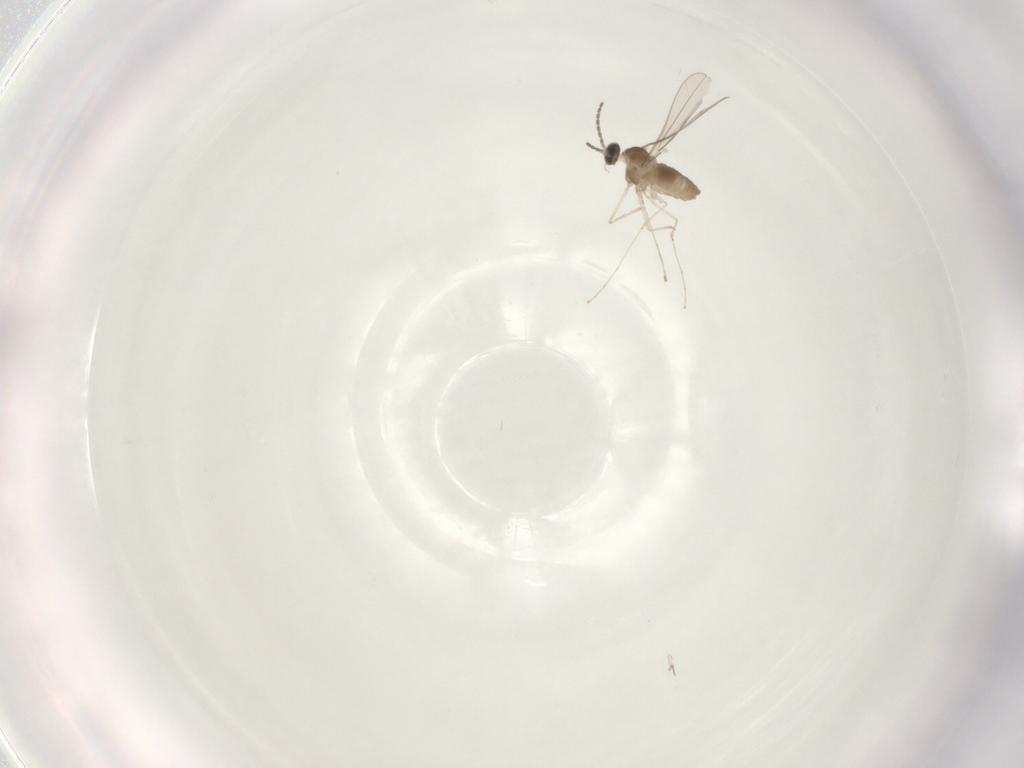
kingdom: Animalia
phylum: Arthropoda
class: Insecta
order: Diptera
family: Cecidomyiidae
